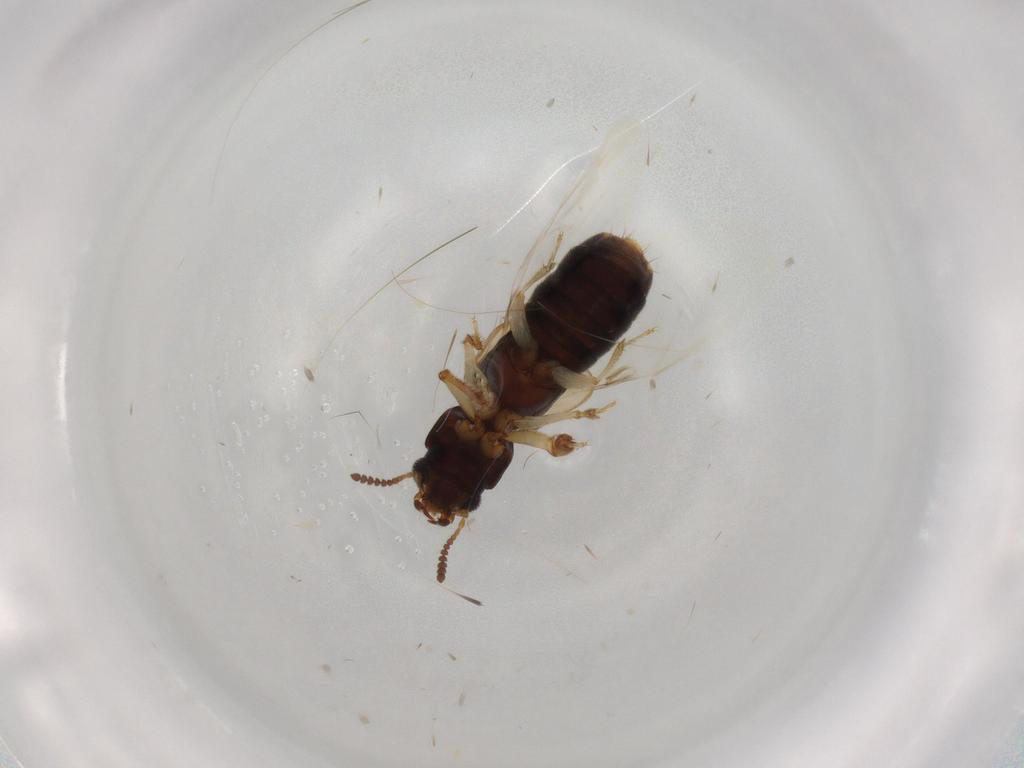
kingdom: Animalia
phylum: Arthropoda
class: Insecta
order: Coleoptera
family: Staphylinidae
